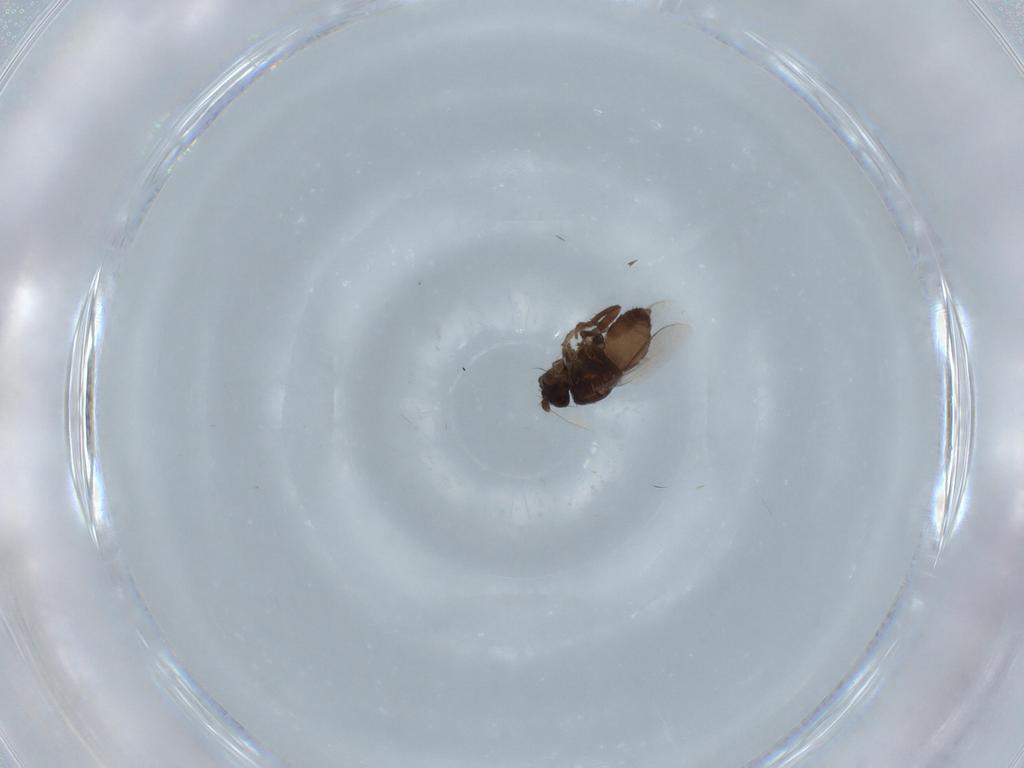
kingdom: Animalia
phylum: Arthropoda
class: Insecta
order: Diptera
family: Sphaeroceridae
